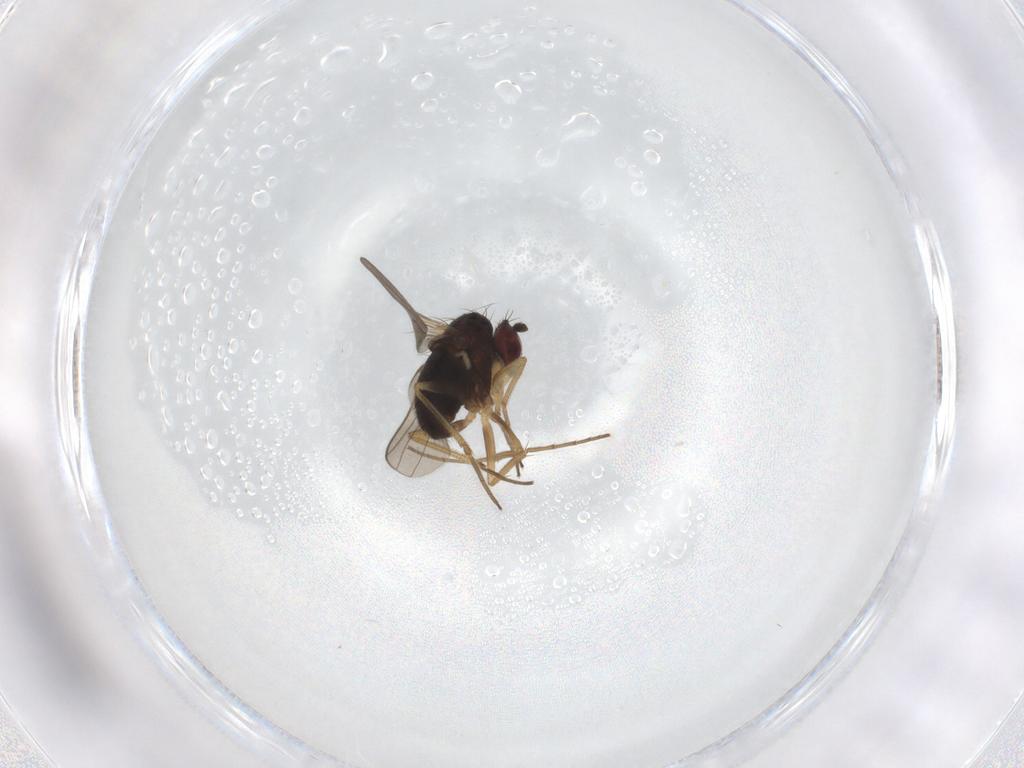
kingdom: Animalia
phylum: Arthropoda
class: Insecta
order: Diptera
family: Dolichopodidae
